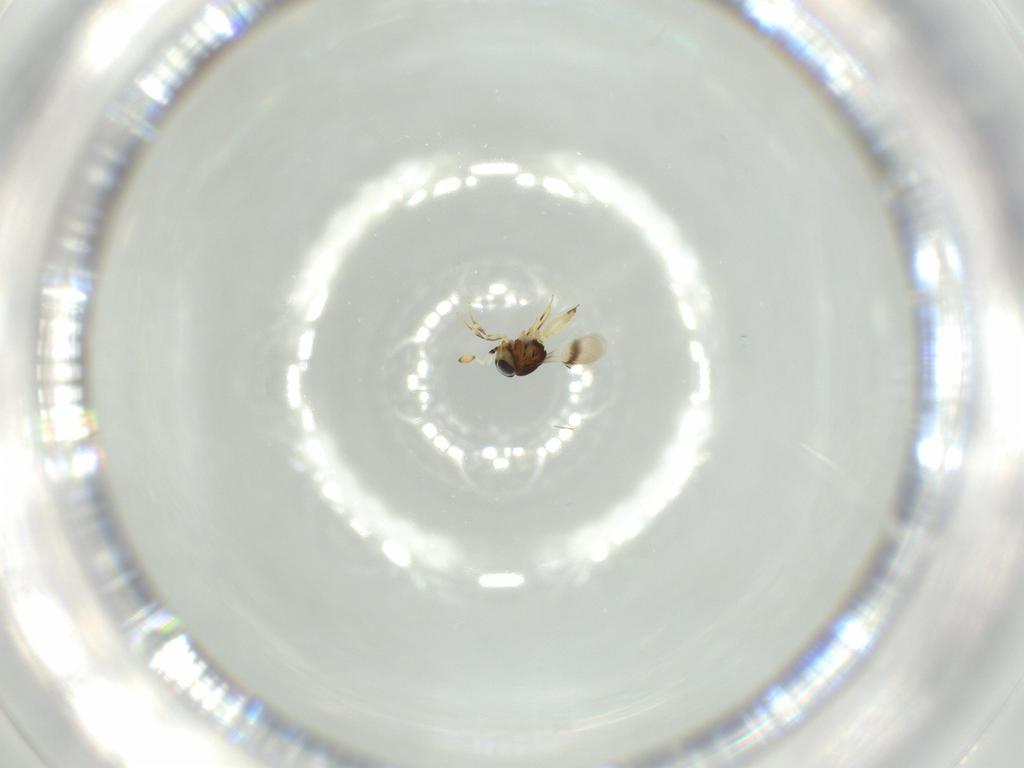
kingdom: Animalia
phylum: Arthropoda
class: Insecta
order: Hymenoptera
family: Scelionidae
